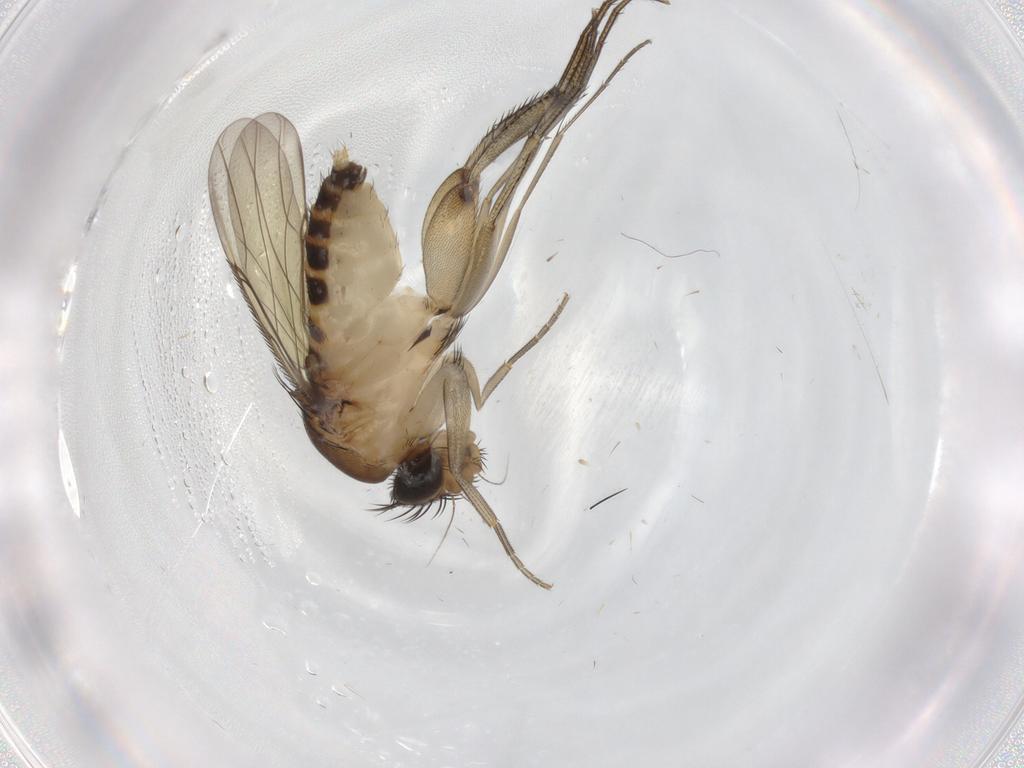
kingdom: Animalia
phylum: Arthropoda
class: Insecta
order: Diptera
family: Phoridae
